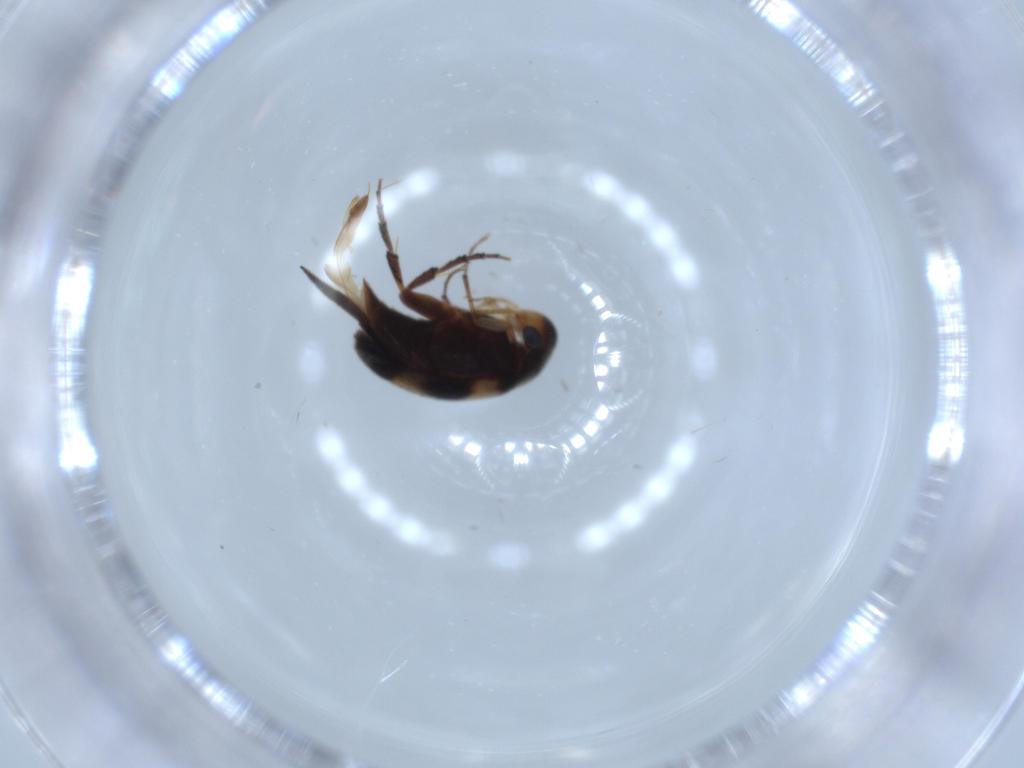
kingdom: Animalia
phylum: Arthropoda
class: Insecta
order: Coleoptera
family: Mordellidae
